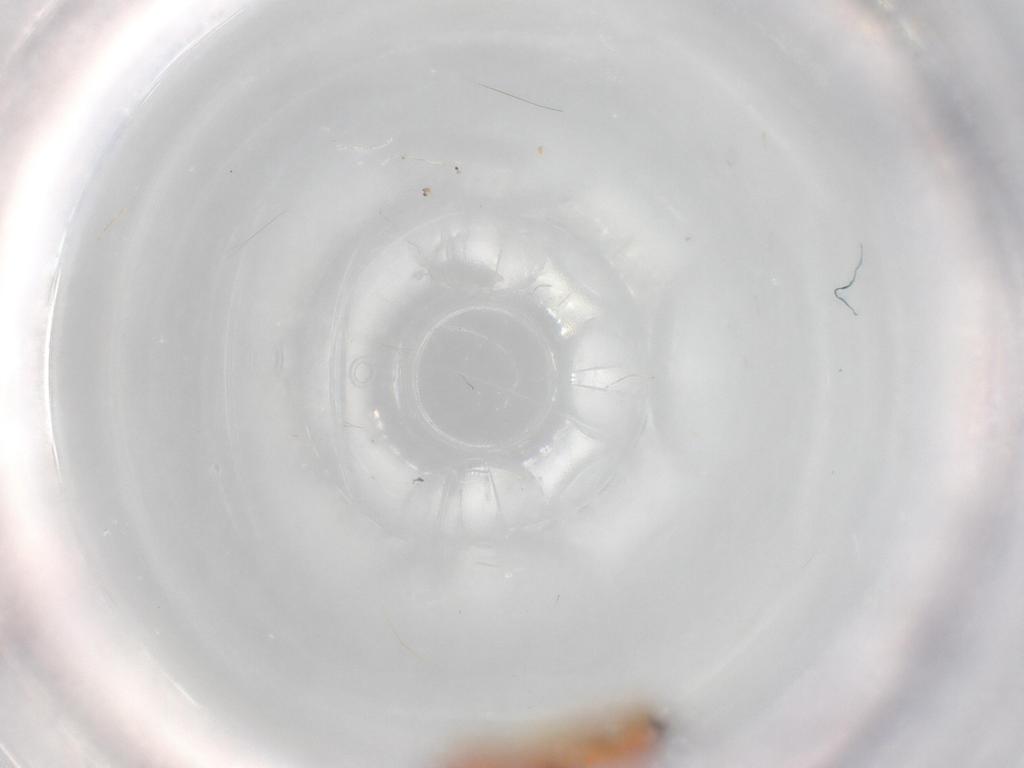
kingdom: Animalia
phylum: Arthropoda
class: Insecta
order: Hemiptera
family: Miridae
